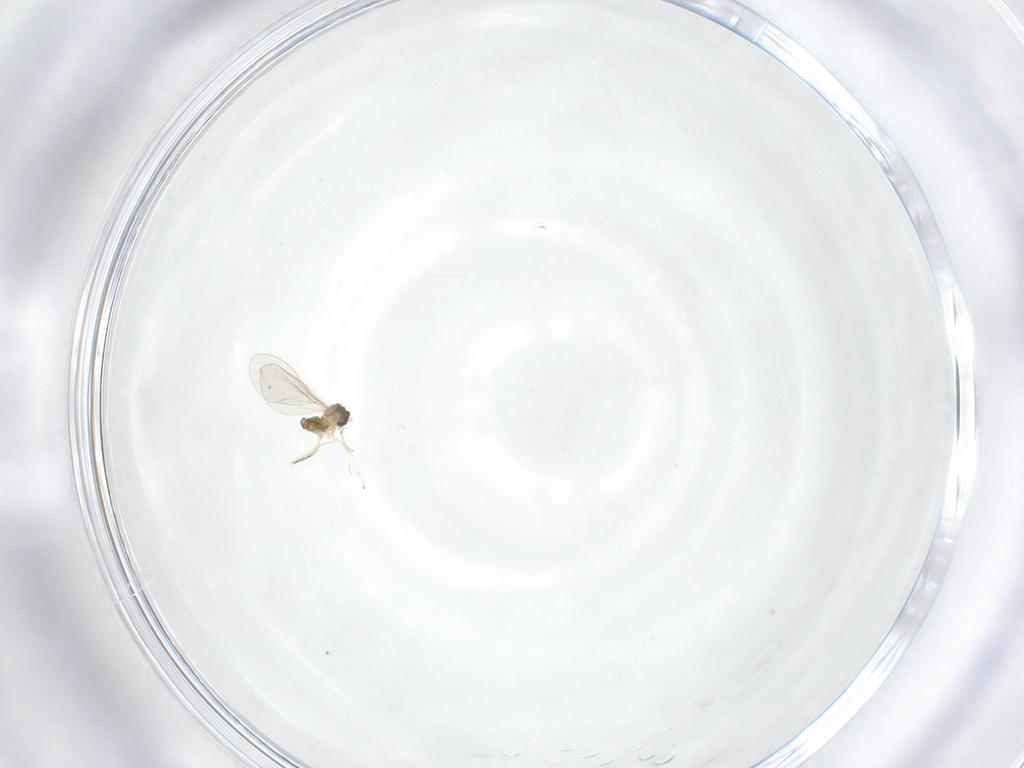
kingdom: Animalia
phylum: Arthropoda
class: Insecta
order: Diptera
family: Cecidomyiidae
